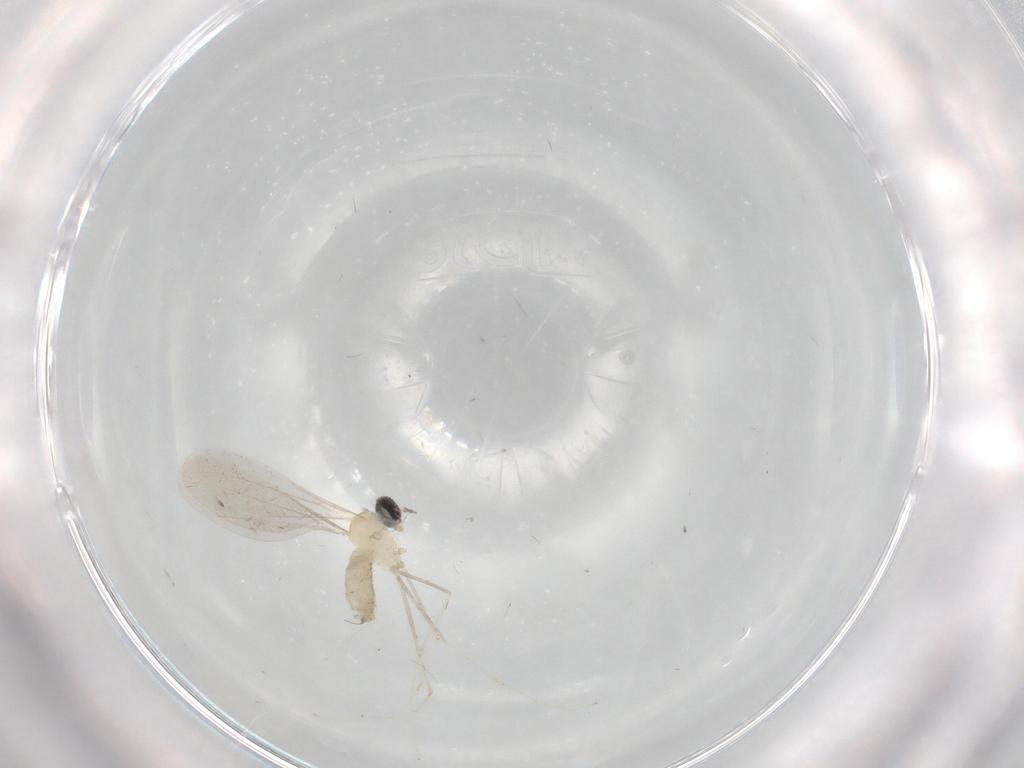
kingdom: Animalia
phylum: Arthropoda
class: Insecta
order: Diptera
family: Cecidomyiidae
